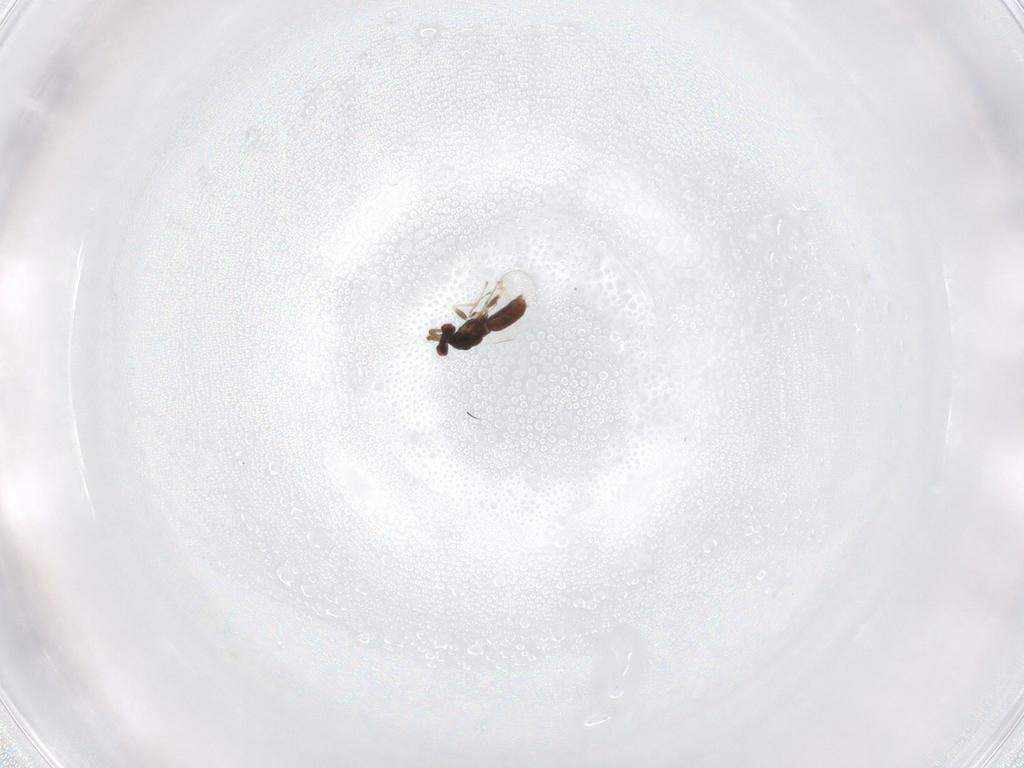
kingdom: Animalia
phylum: Arthropoda
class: Insecta
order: Hymenoptera
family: Eulophidae
